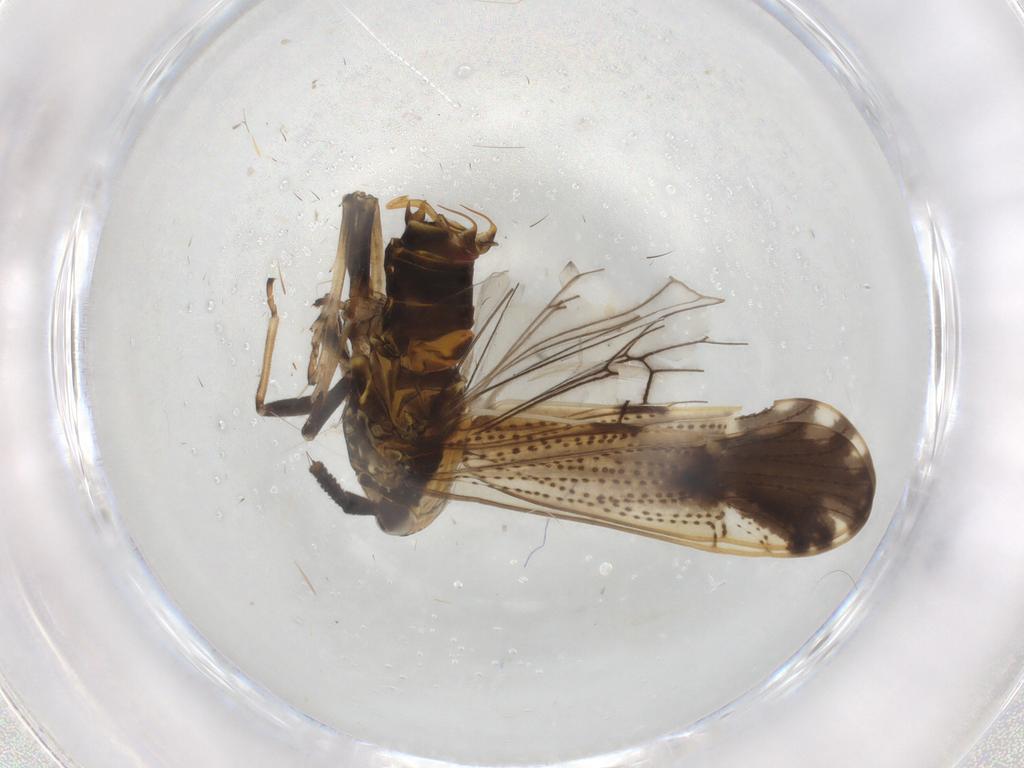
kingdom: Animalia
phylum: Arthropoda
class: Insecta
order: Hemiptera
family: Delphacidae
